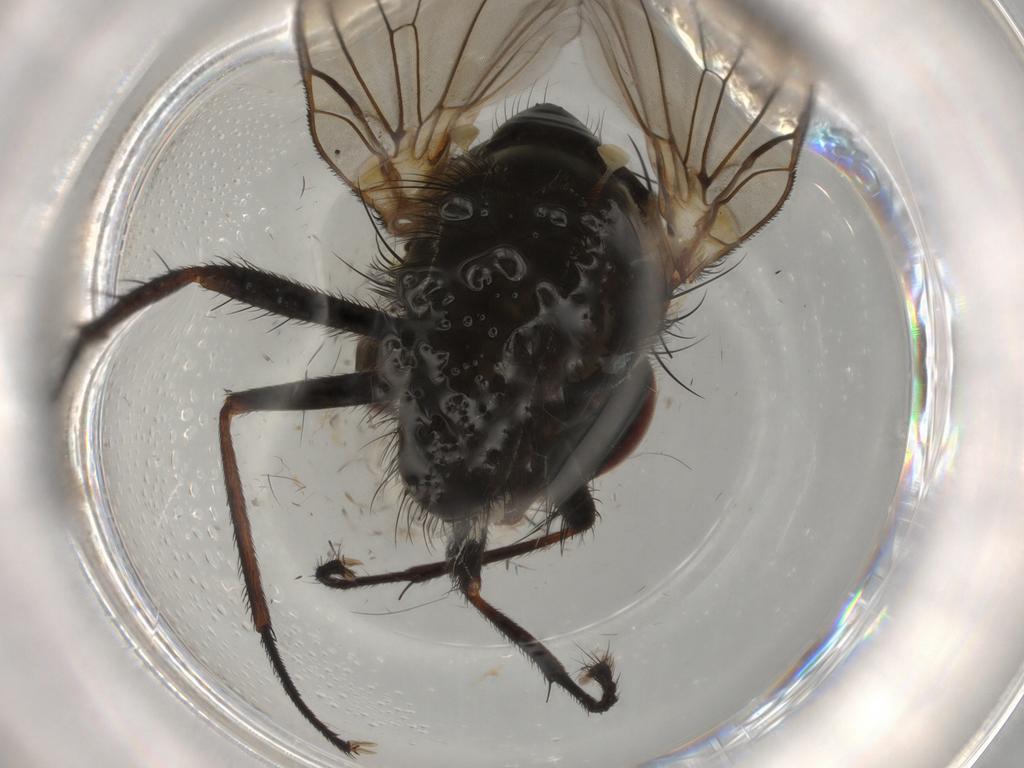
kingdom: Animalia
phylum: Arthropoda
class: Insecta
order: Diptera
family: Anthomyiidae
